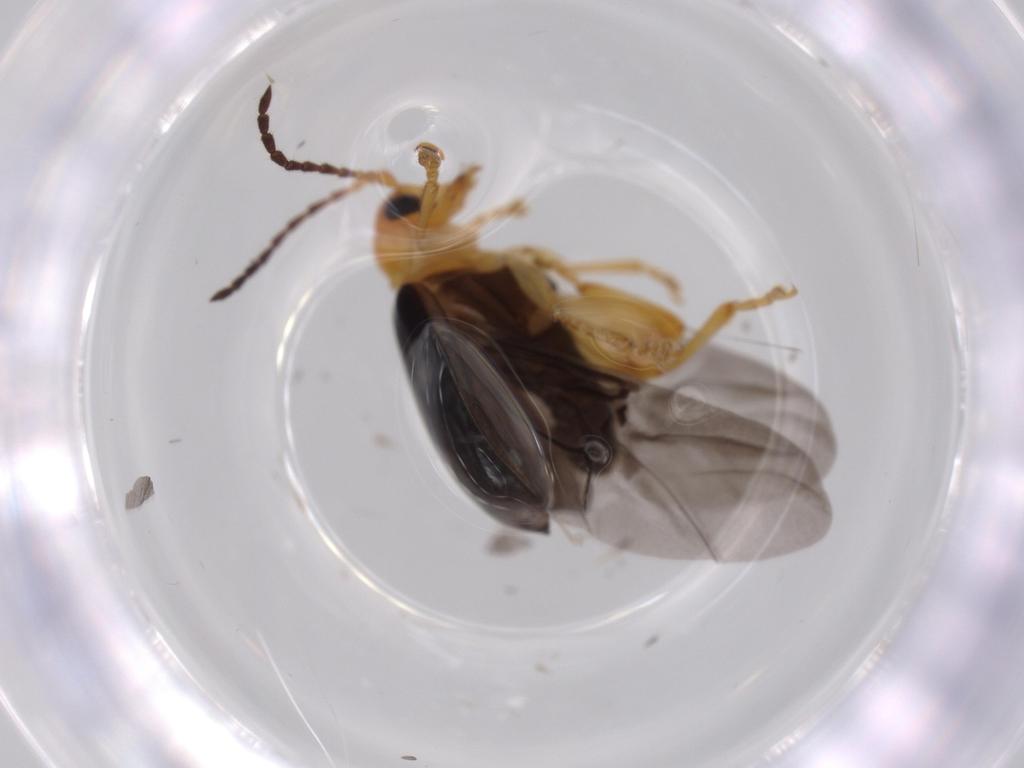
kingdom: Animalia
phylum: Arthropoda
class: Insecta
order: Coleoptera
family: Chrysomelidae
